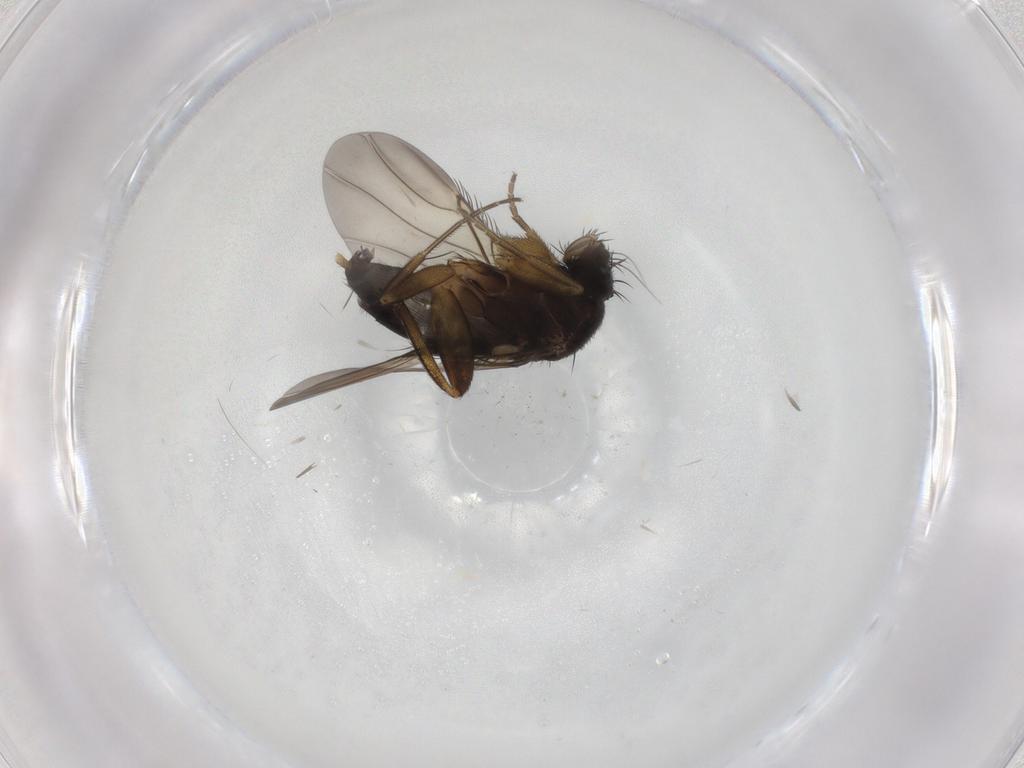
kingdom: Animalia
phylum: Arthropoda
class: Insecta
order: Diptera
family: Phoridae
